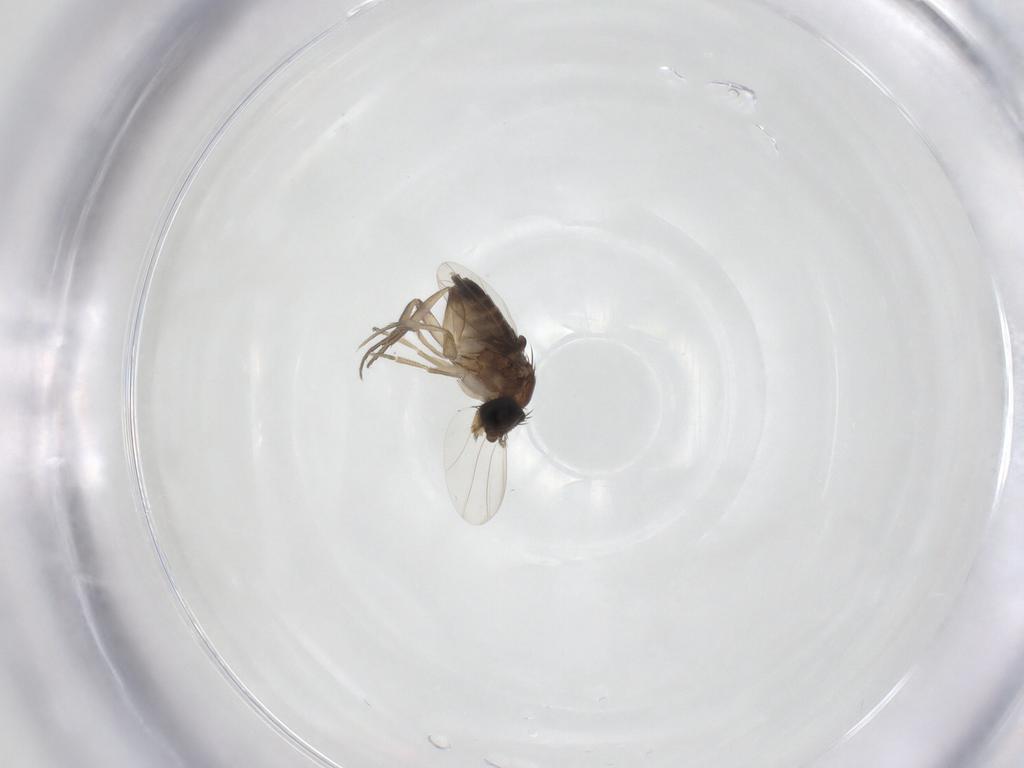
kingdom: Animalia
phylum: Arthropoda
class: Insecta
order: Diptera
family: Phoridae
